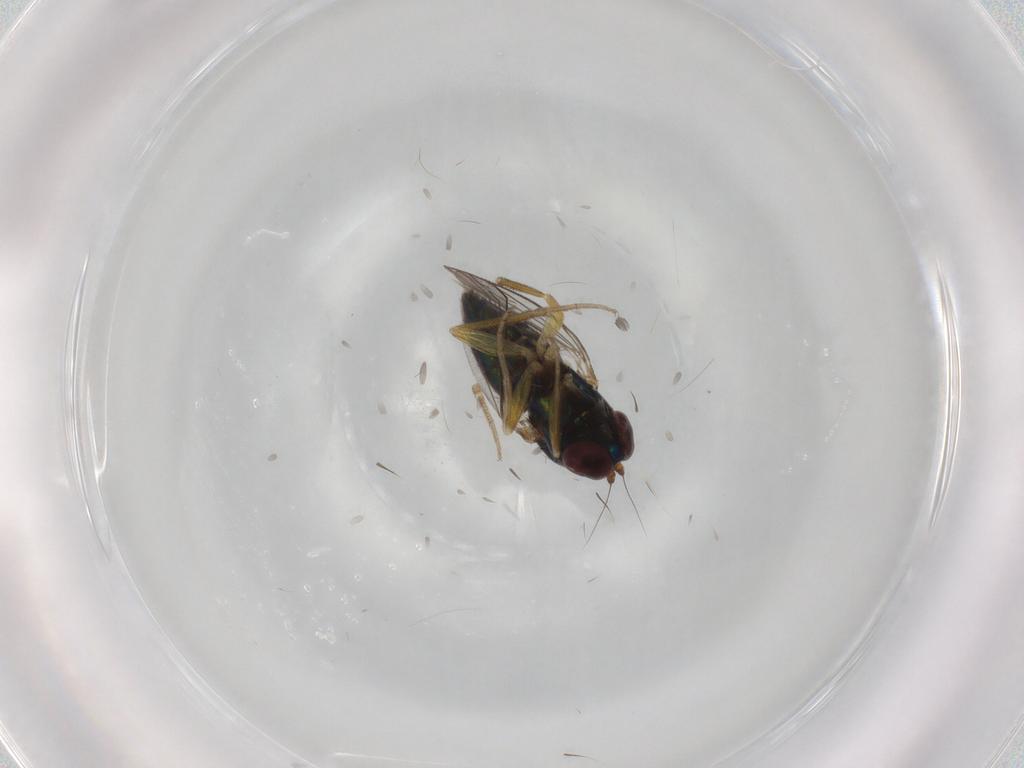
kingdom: Animalia
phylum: Arthropoda
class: Insecta
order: Diptera
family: Dolichopodidae
